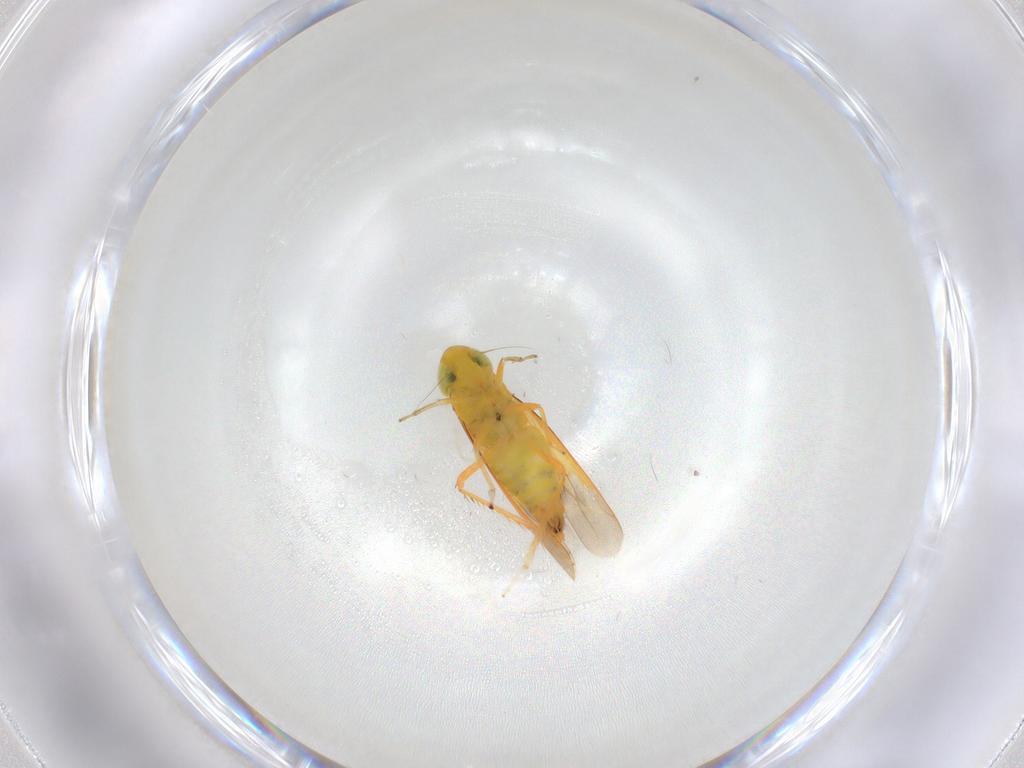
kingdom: Animalia
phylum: Arthropoda
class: Insecta
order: Hemiptera
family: Cicadellidae
